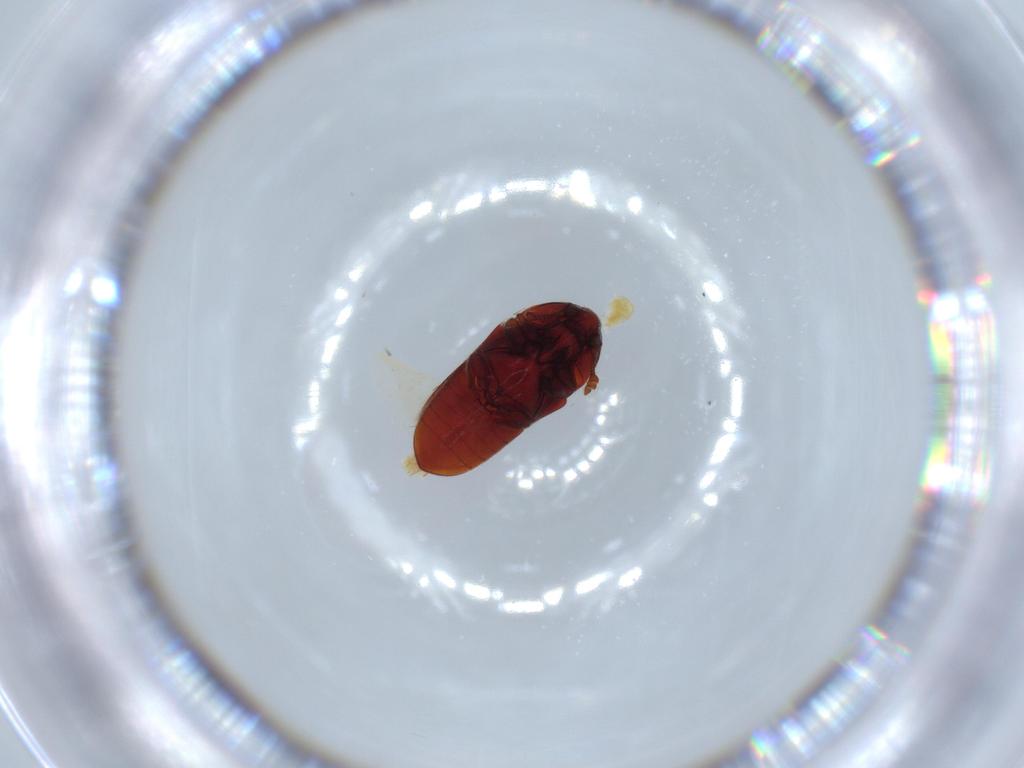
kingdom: Animalia
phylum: Arthropoda
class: Insecta
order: Coleoptera
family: Throscidae
